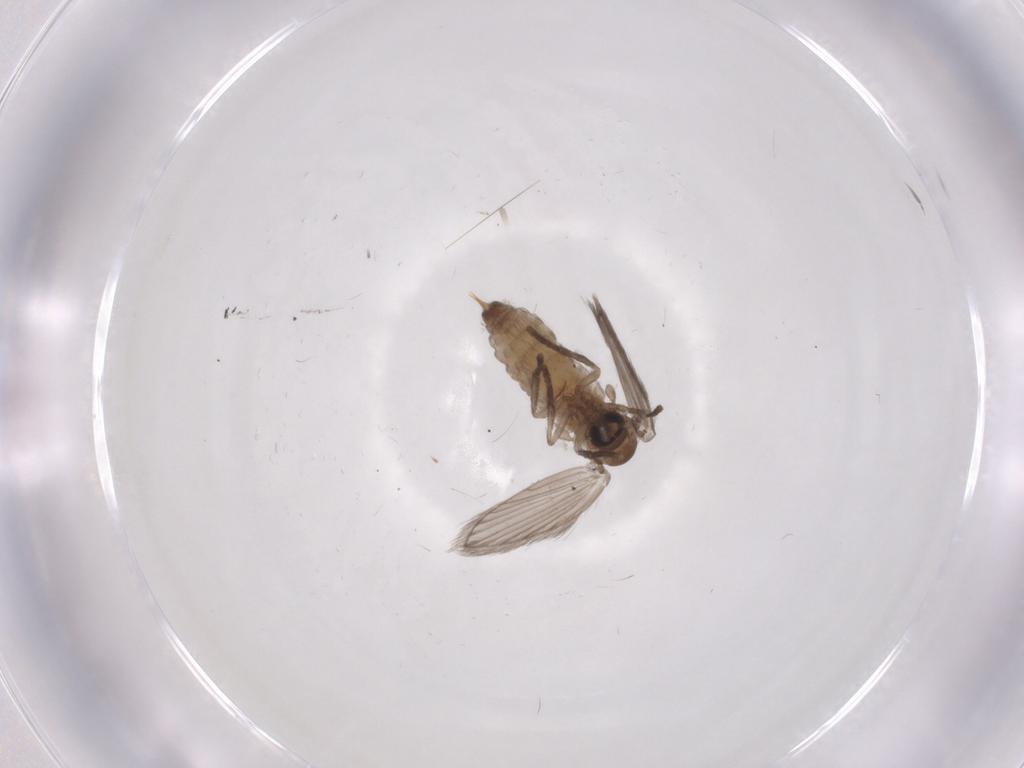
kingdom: Animalia
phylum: Arthropoda
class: Insecta
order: Diptera
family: Psychodidae
